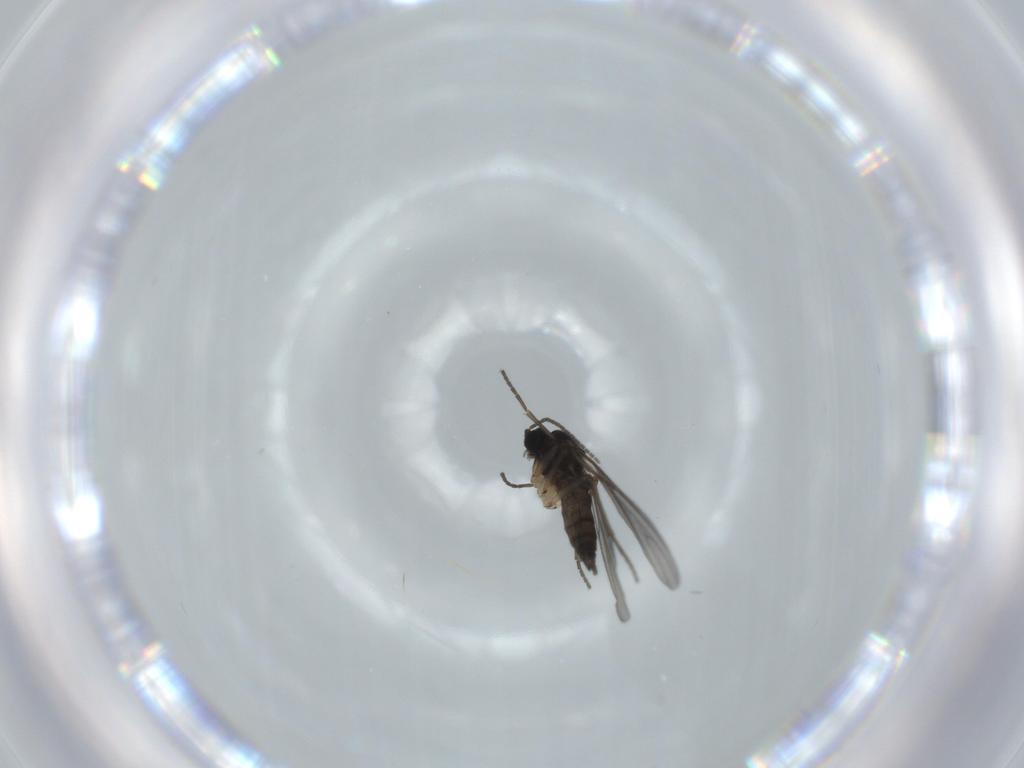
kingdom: Animalia
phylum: Arthropoda
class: Insecta
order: Diptera
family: Sciaridae
